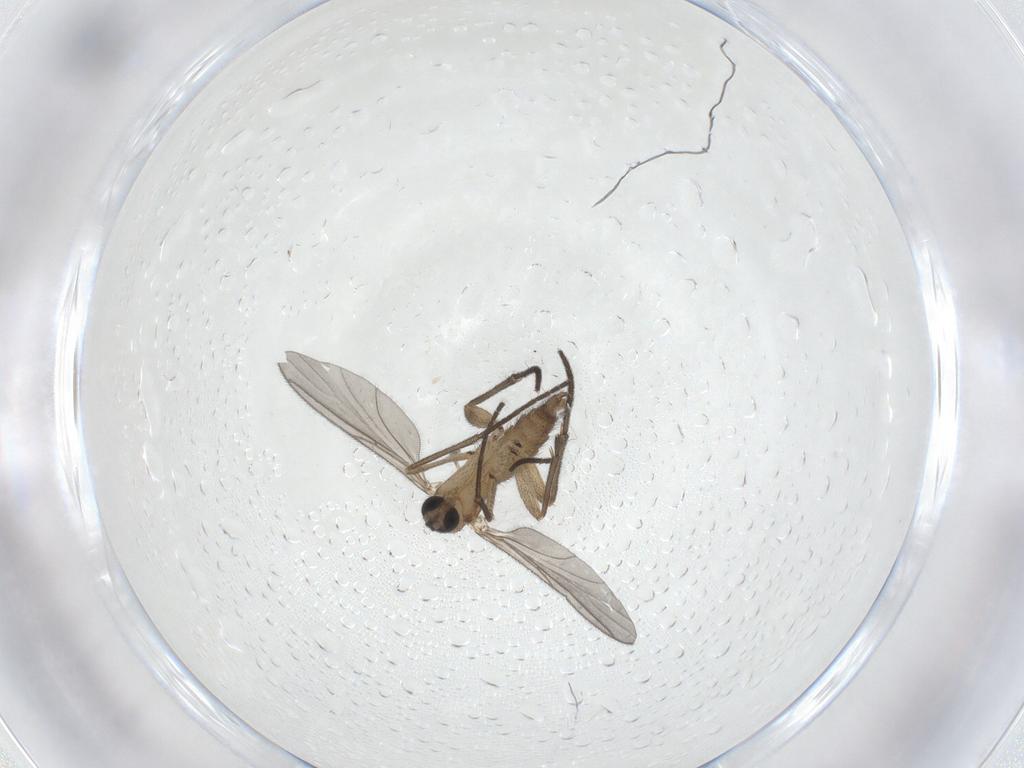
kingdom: Animalia
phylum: Arthropoda
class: Insecta
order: Diptera
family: Sciaridae
